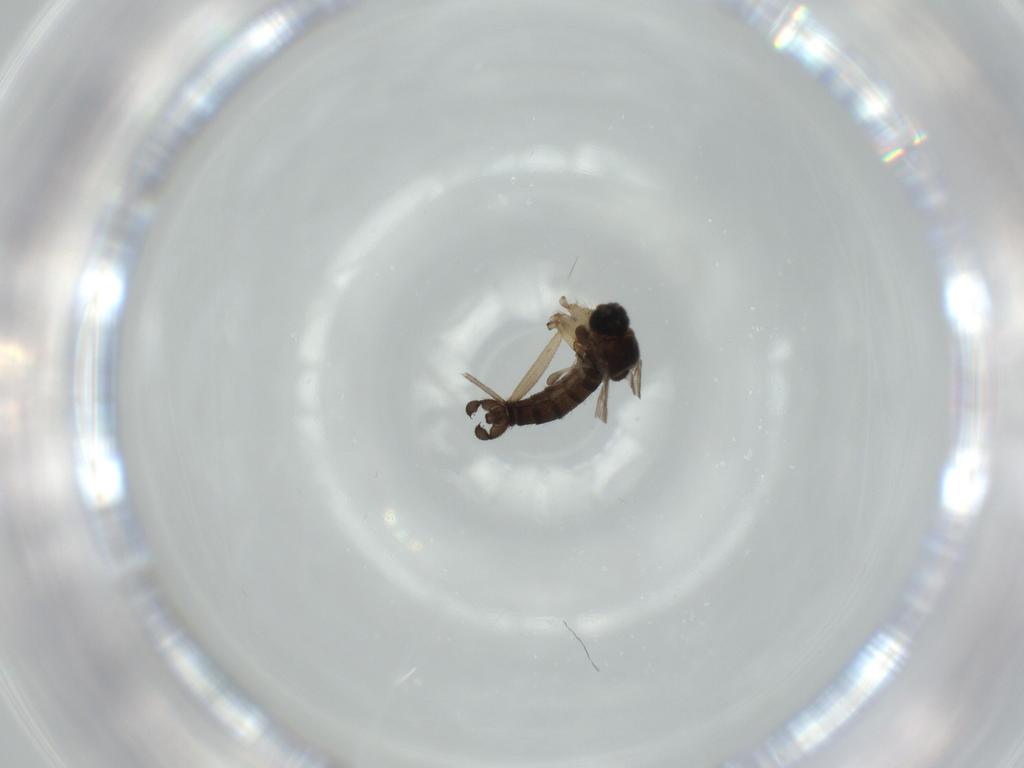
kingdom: Animalia
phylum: Arthropoda
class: Insecta
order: Diptera
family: Sciaridae
